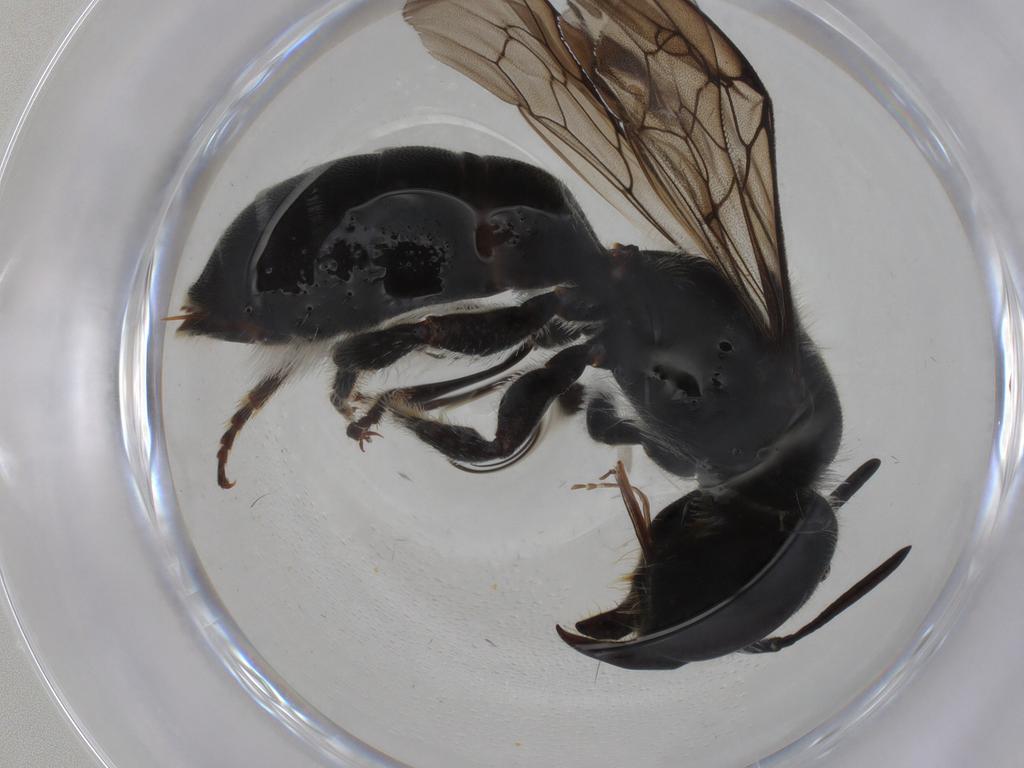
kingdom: Animalia
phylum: Arthropoda
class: Insecta
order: Hymenoptera
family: Megachilidae
